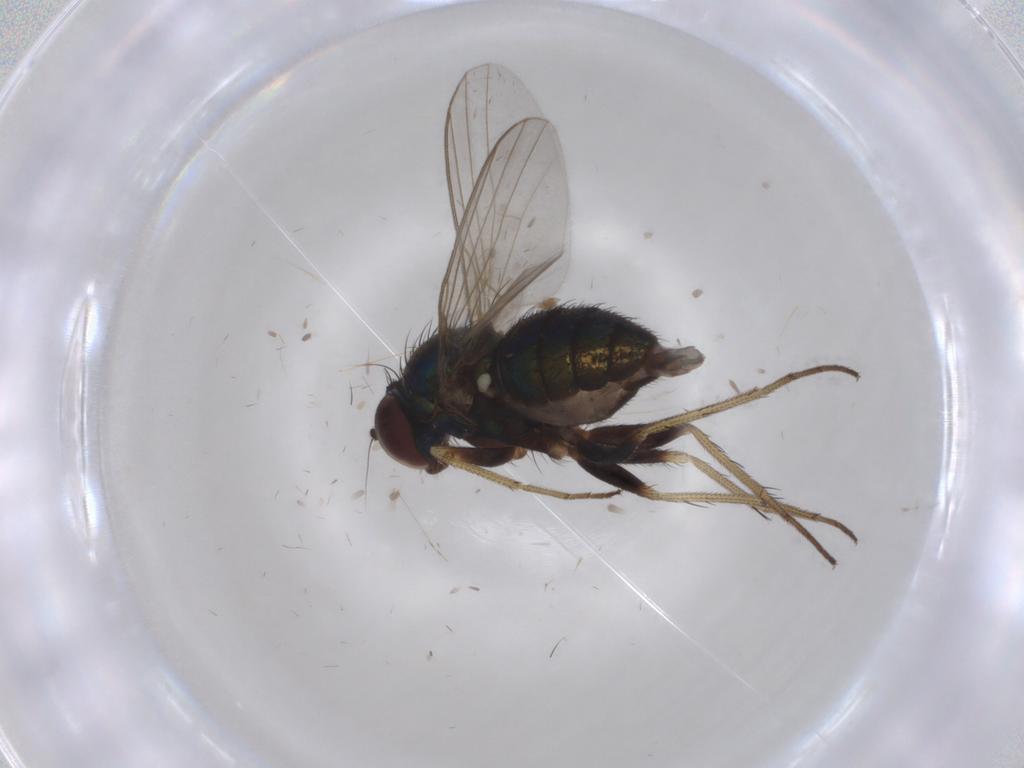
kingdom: Animalia
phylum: Arthropoda
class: Insecta
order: Diptera
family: Dolichopodidae
